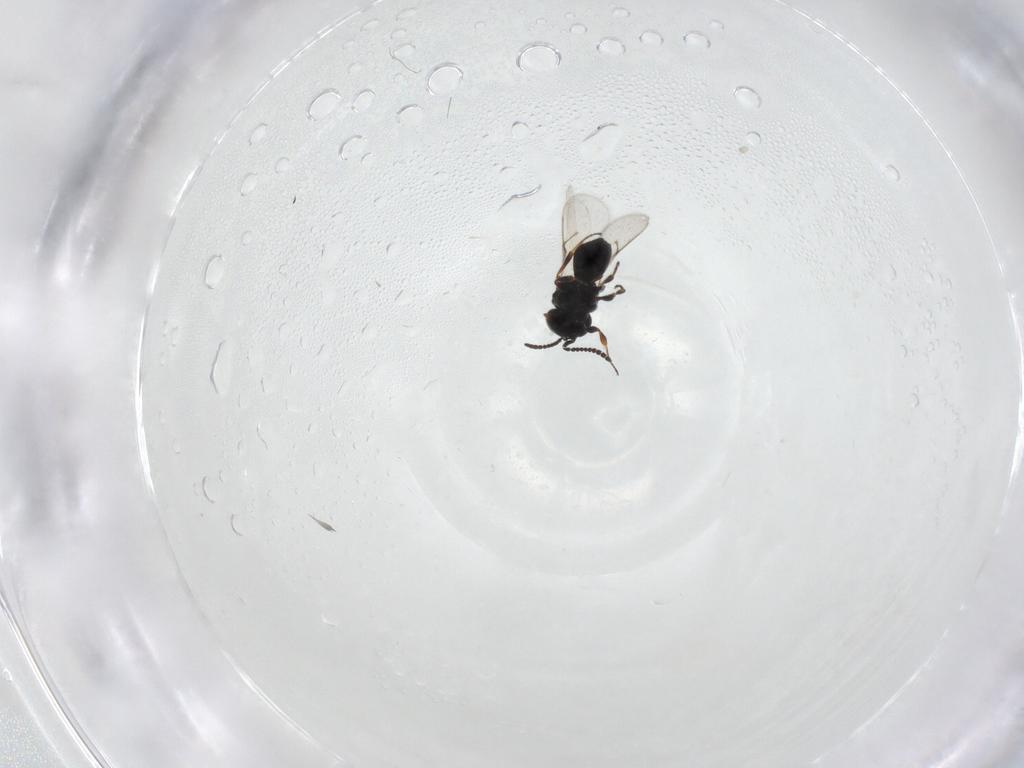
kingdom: Animalia
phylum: Arthropoda
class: Insecta
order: Hymenoptera
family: Scelionidae
